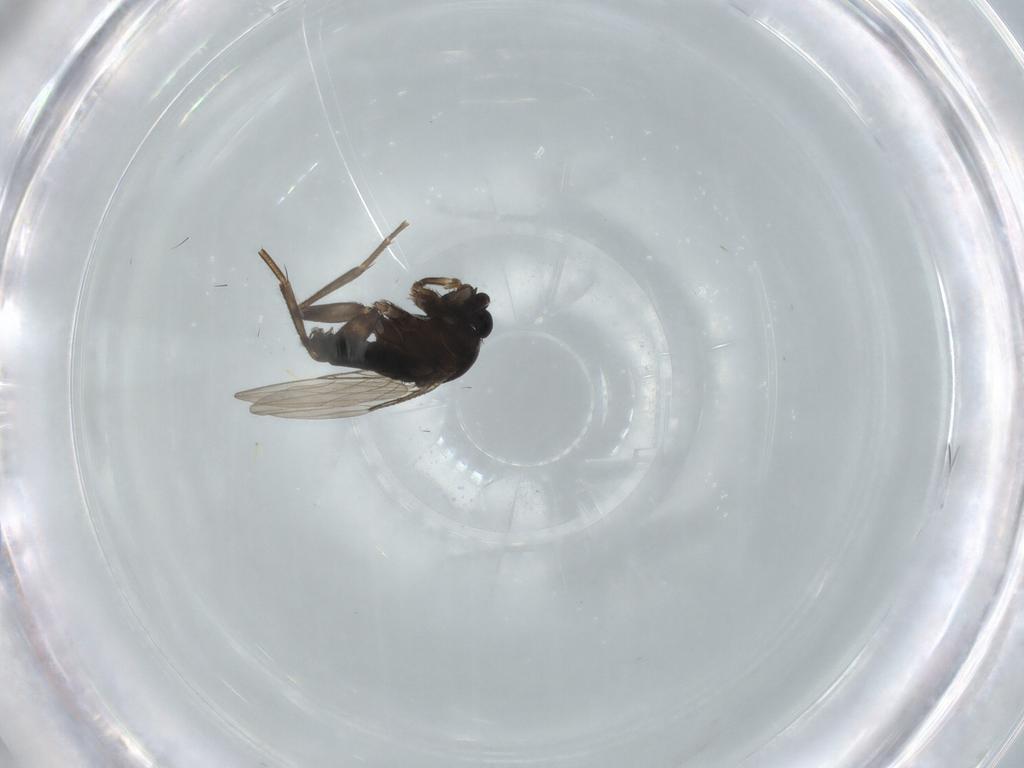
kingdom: Animalia
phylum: Arthropoda
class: Insecta
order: Diptera
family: Phoridae
